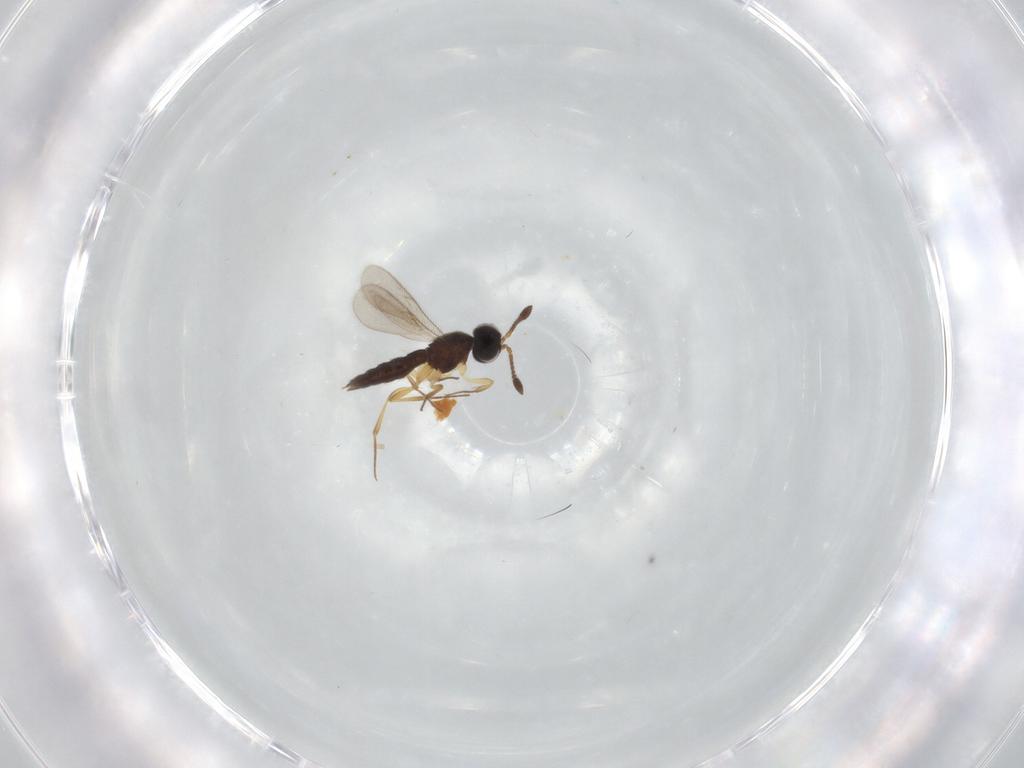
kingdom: Animalia
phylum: Arthropoda
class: Insecta
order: Hymenoptera
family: Scelionidae
